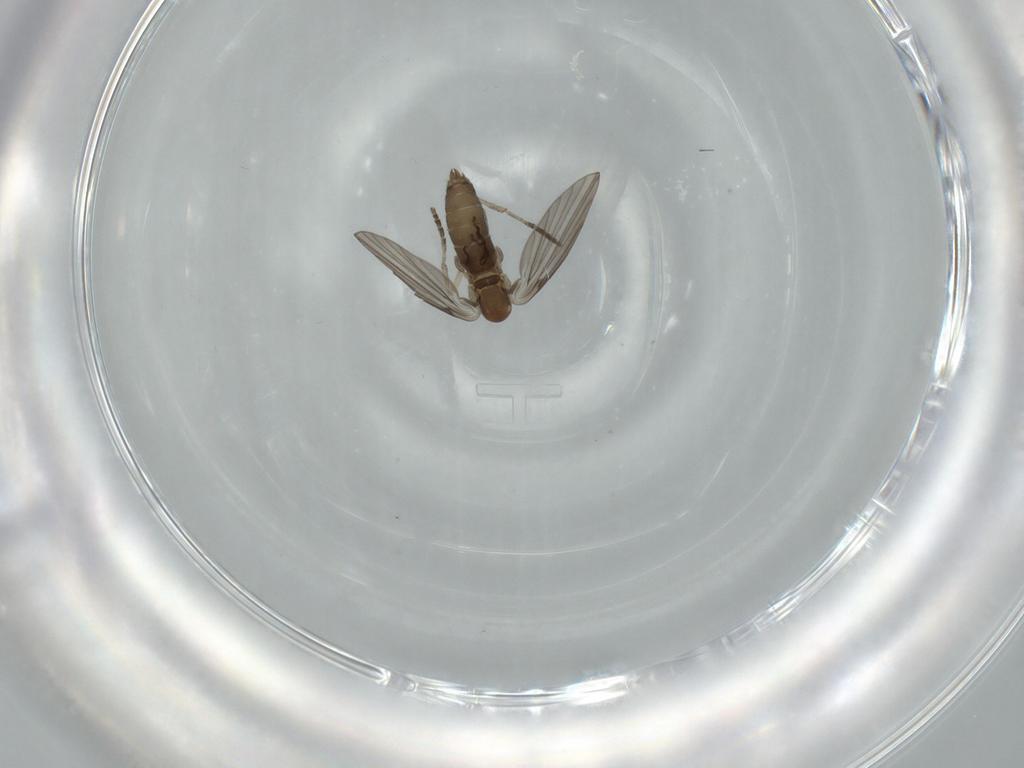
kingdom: Animalia
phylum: Arthropoda
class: Insecta
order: Diptera
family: Psychodidae
